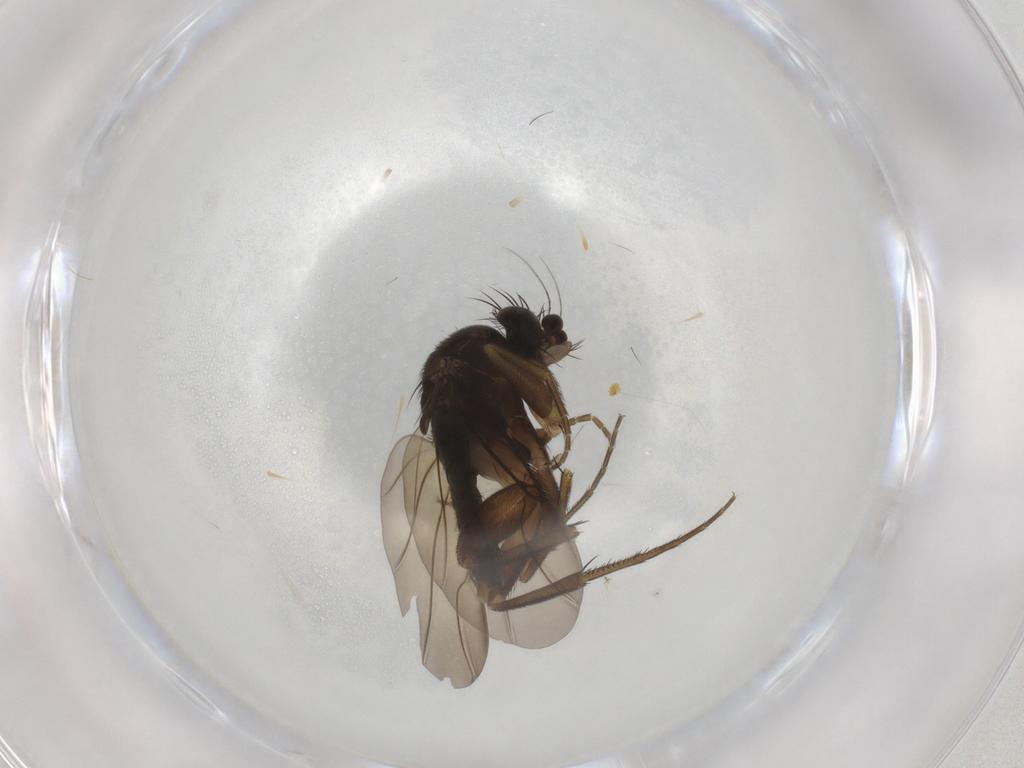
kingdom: Animalia
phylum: Arthropoda
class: Insecta
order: Diptera
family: Phoridae
